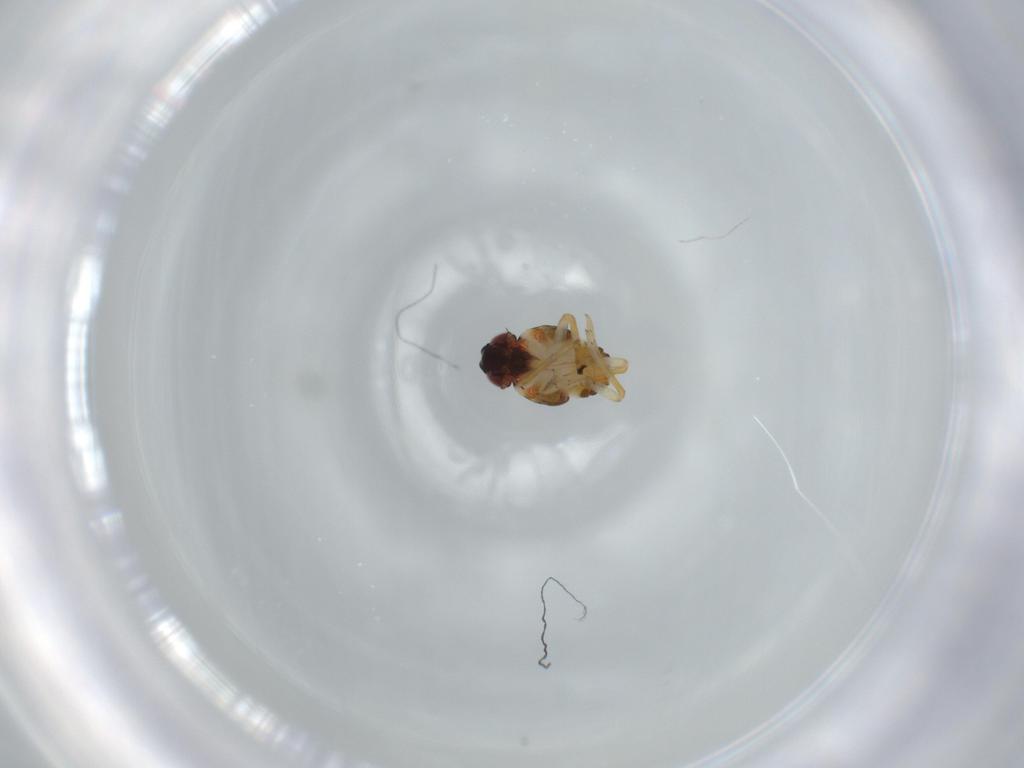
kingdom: Animalia
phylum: Arthropoda
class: Insecta
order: Hemiptera
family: Issidae
